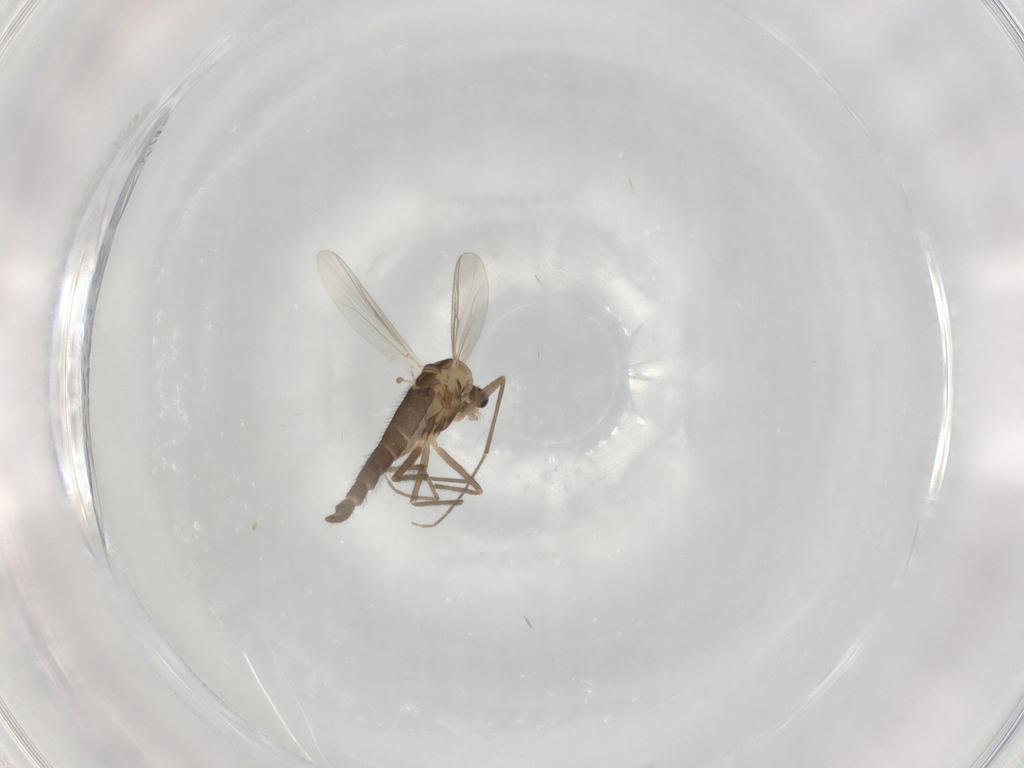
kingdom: Animalia
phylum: Arthropoda
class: Insecta
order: Diptera
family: Chironomidae
